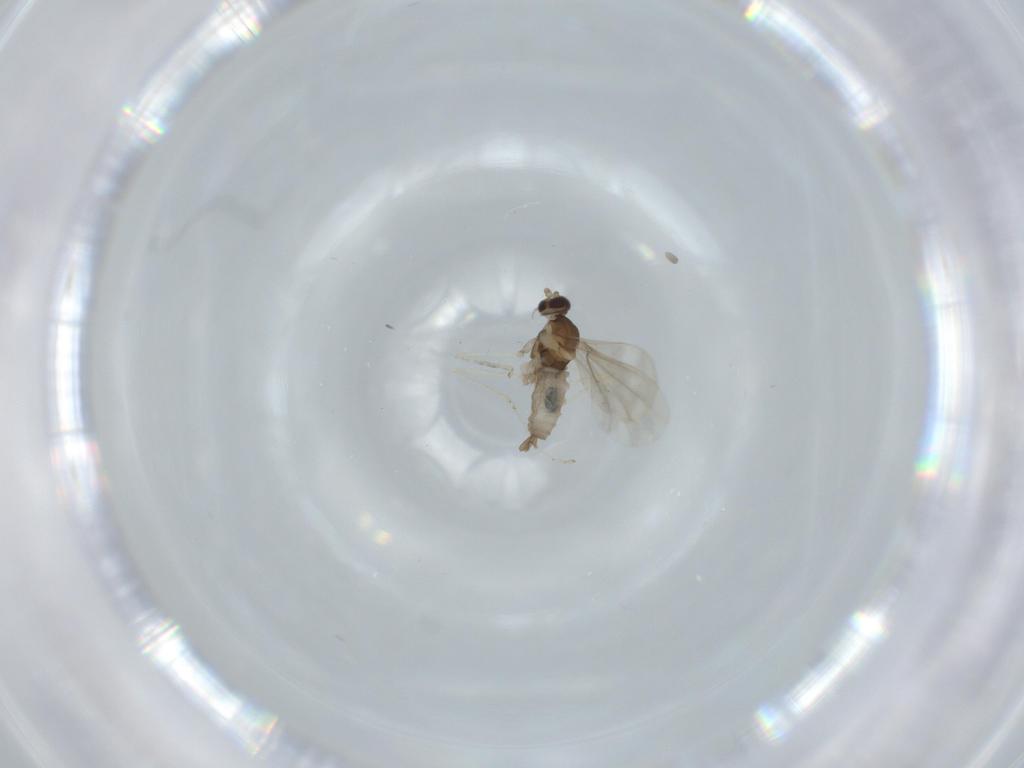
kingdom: Animalia
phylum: Arthropoda
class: Insecta
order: Diptera
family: Cecidomyiidae
